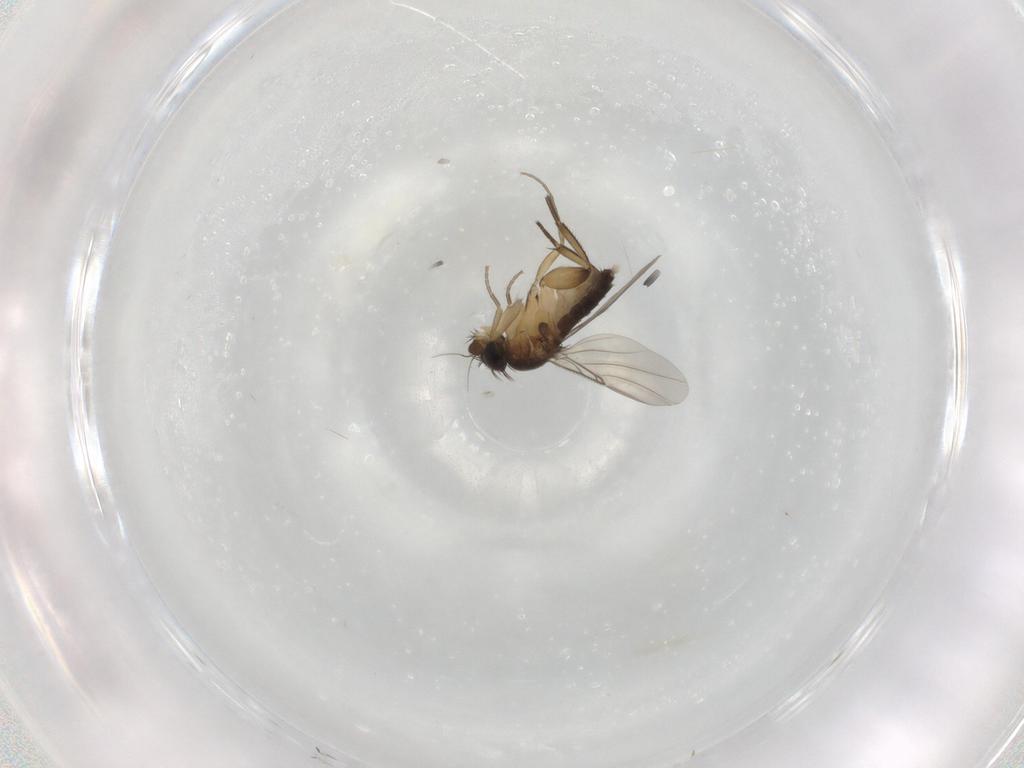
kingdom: Animalia
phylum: Arthropoda
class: Insecta
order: Diptera
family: Phoridae
